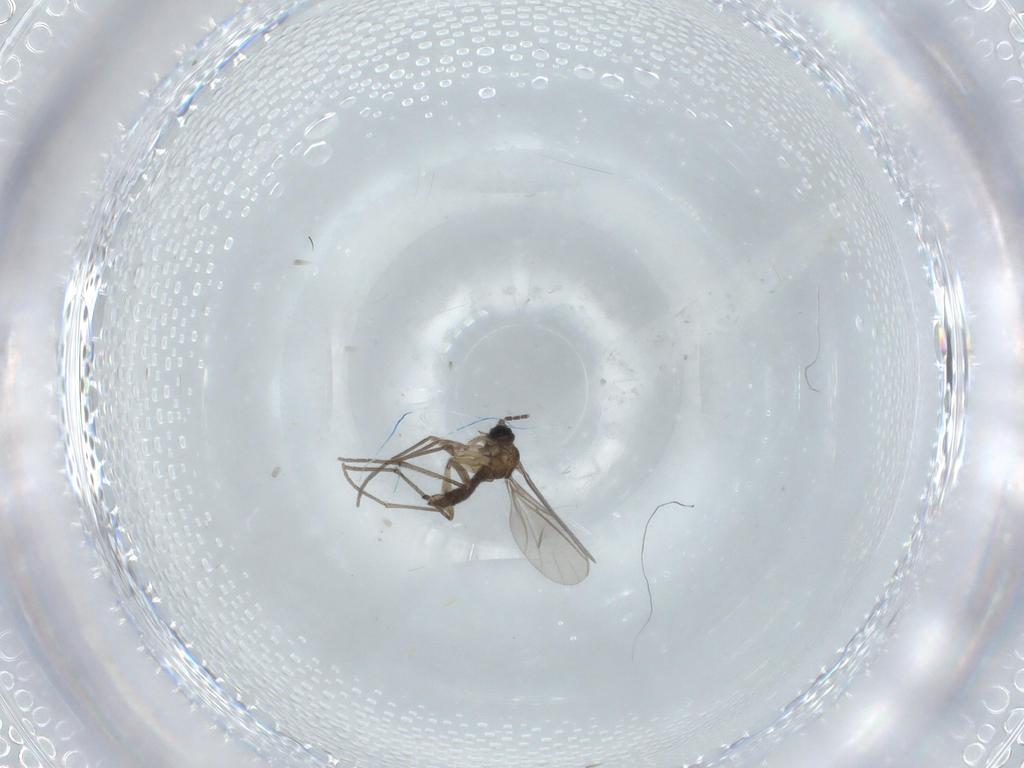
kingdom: Animalia
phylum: Arthropoda
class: Insecta
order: Diptera
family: Sciaridae
